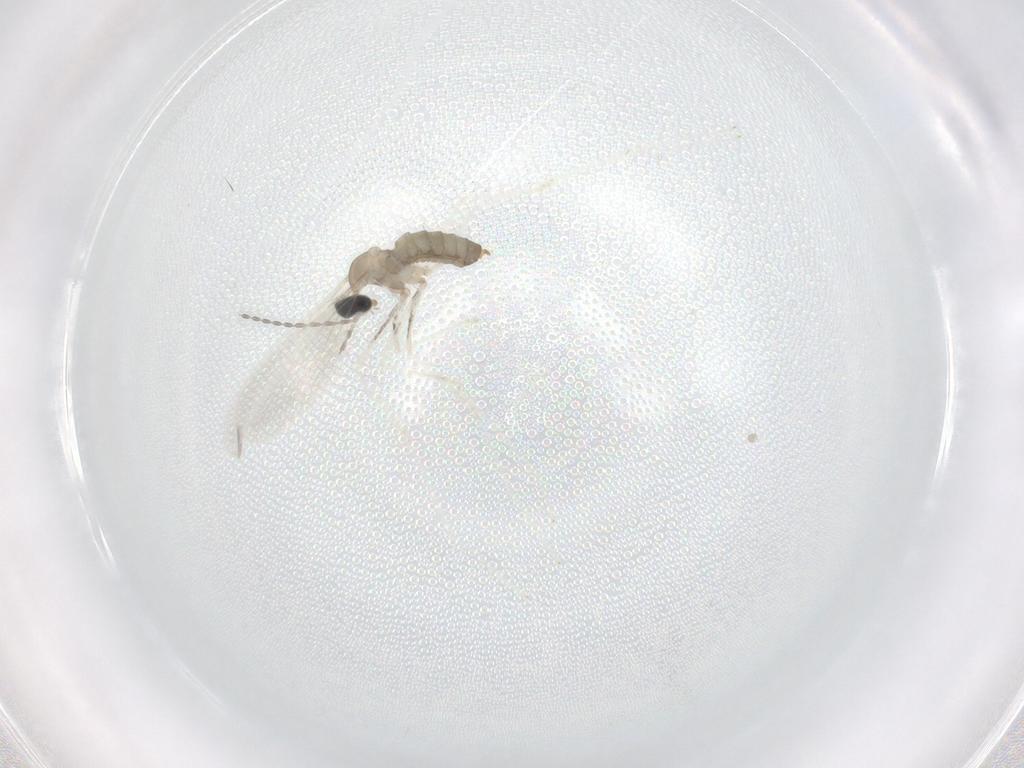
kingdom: Animalia
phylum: Arthropoda
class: Insecta
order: Diptera
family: Cecidomyiidae
